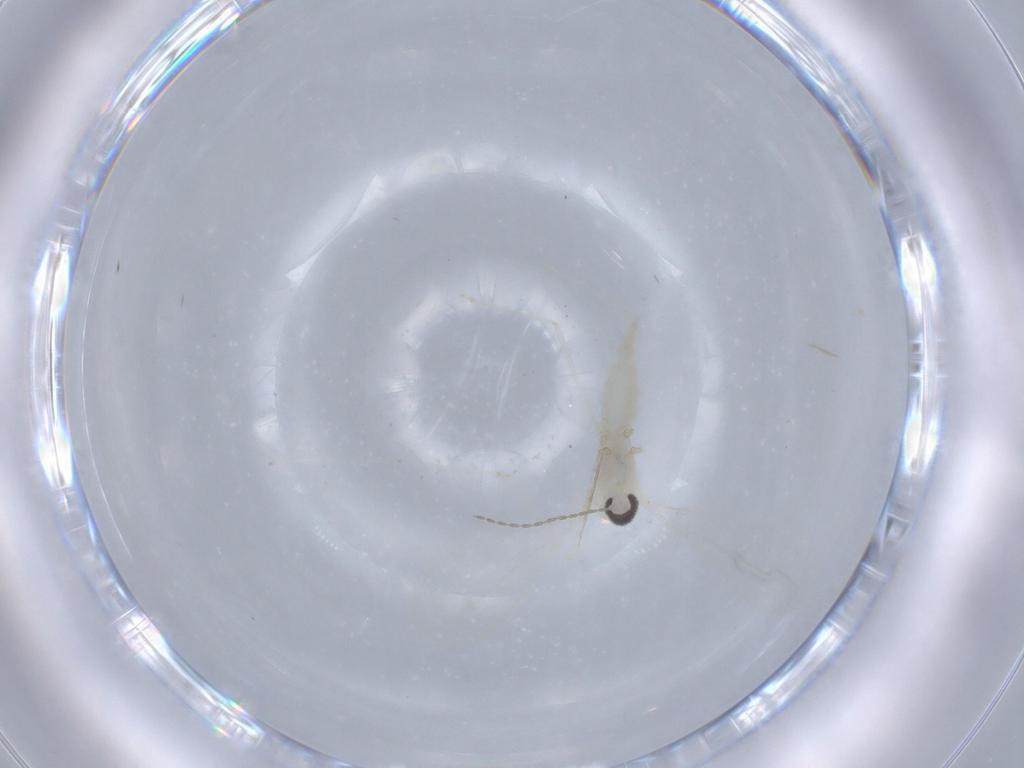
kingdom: Animalia
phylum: Arthropoda
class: Insecta
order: Diptera
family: Cecidomyiidae
